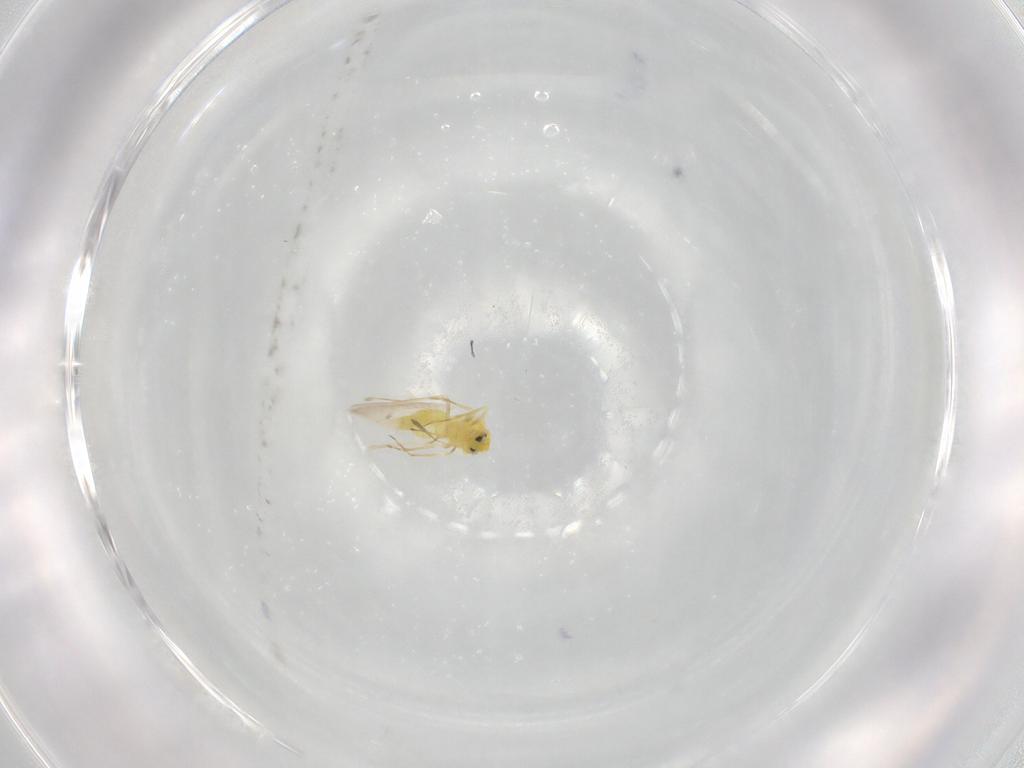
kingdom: Animalia
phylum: Arthropoda
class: Insecta
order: Hemiptera
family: Aleyrodidae
